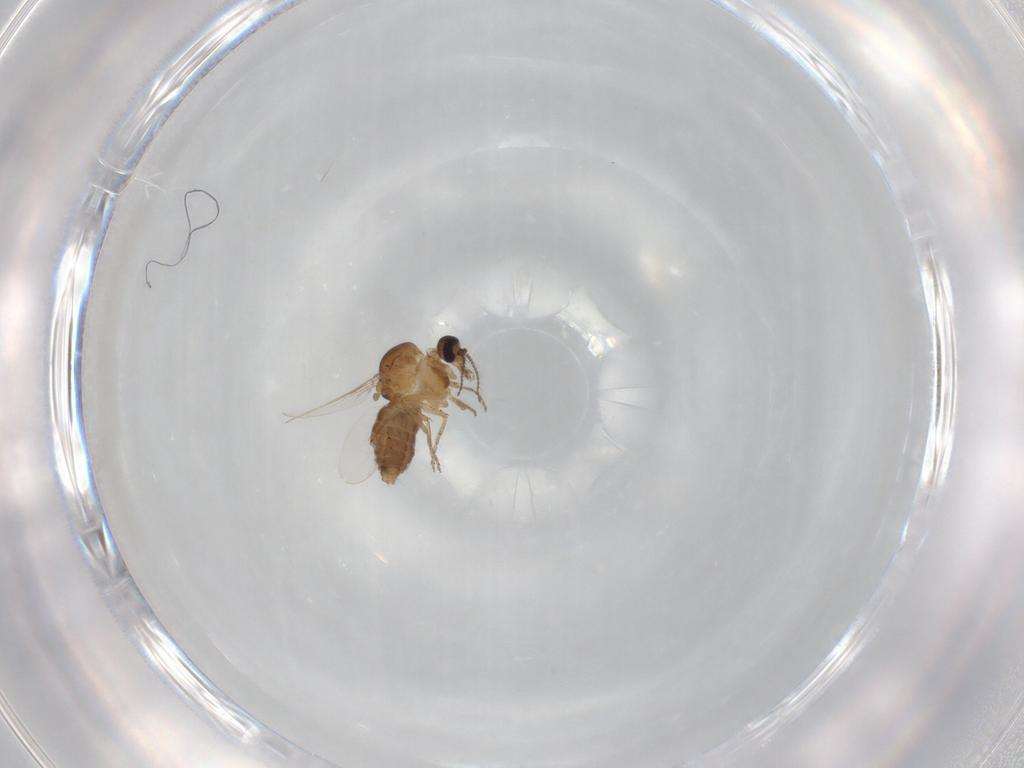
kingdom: Animalia
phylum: Arthropoda
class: Insecta
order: Diptera
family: Ceratopogonidae
